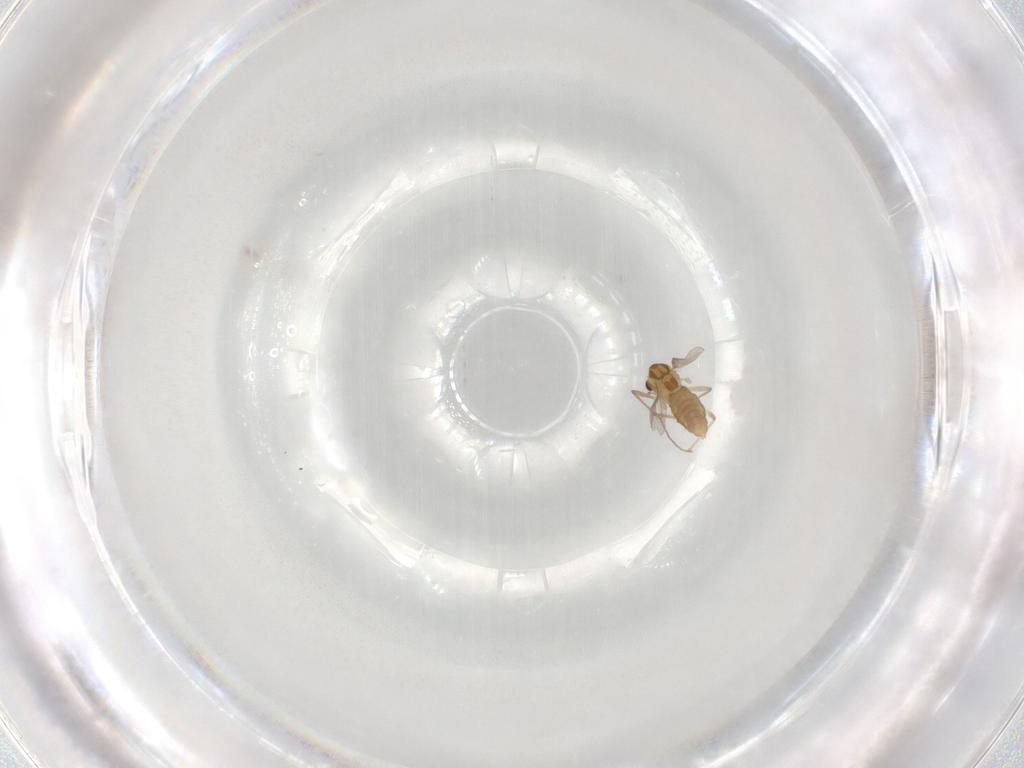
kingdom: Animalia
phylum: Arthropoda
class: Insecta
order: Diptera
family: Chironomidae
